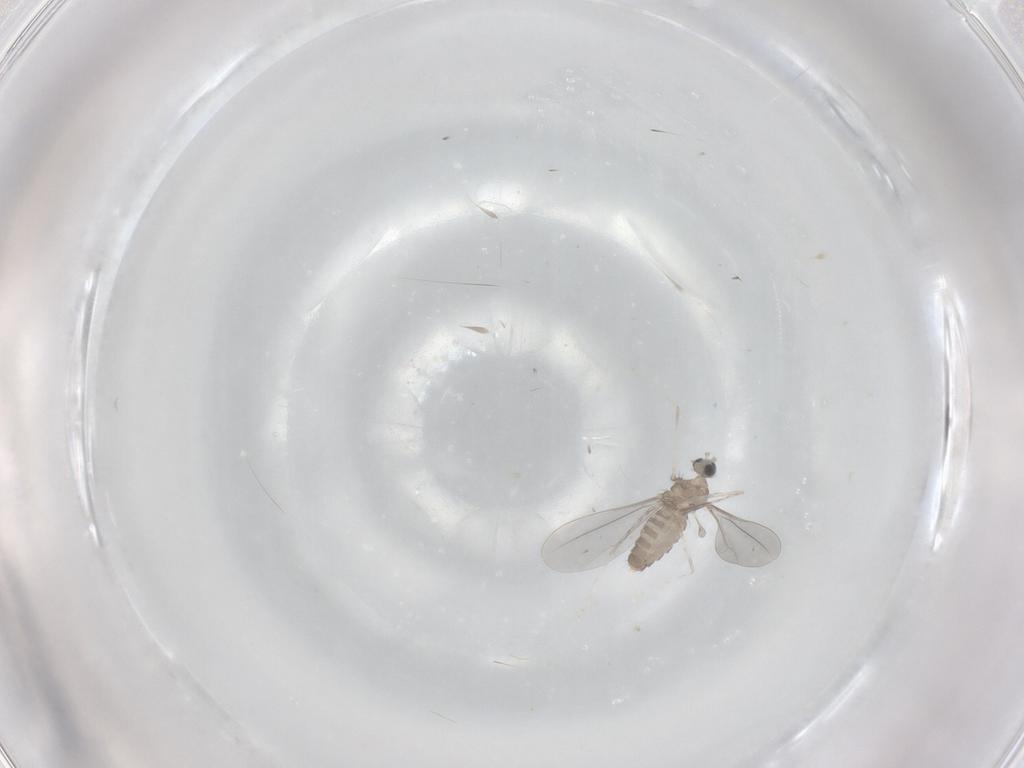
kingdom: Animalia
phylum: Arthropoda
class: Insecta
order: Diptera
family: Cecidomyiidae
